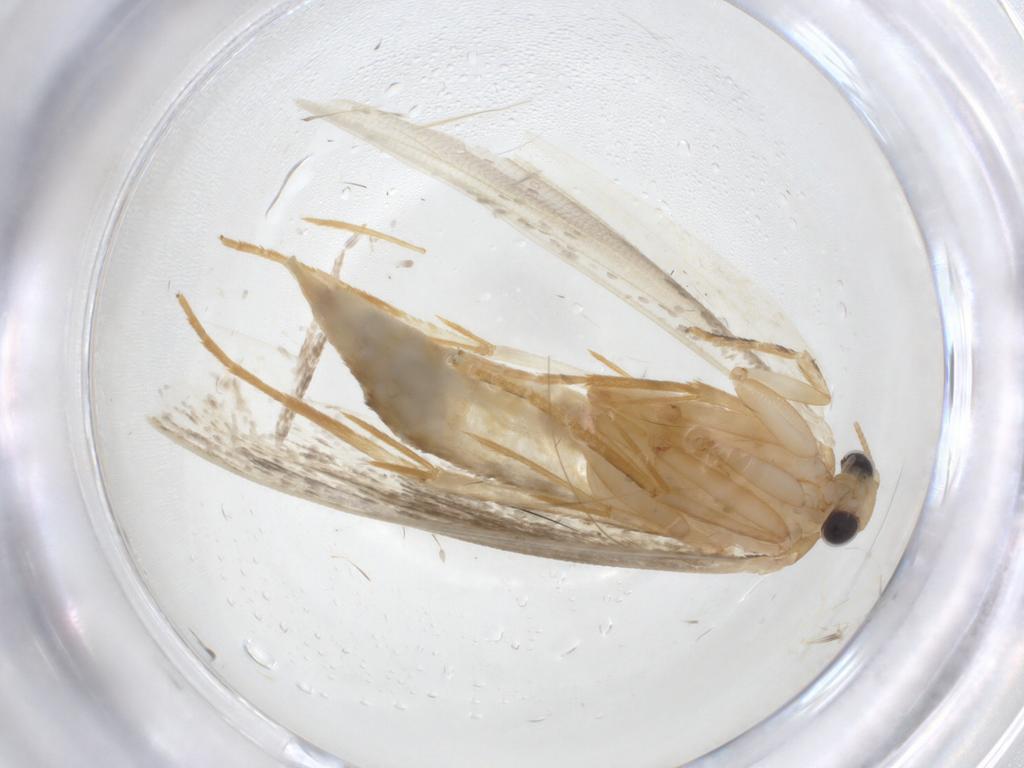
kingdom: Animalia
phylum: Arthropoda
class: Insecta
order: Lepidoptera
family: Tineidae
